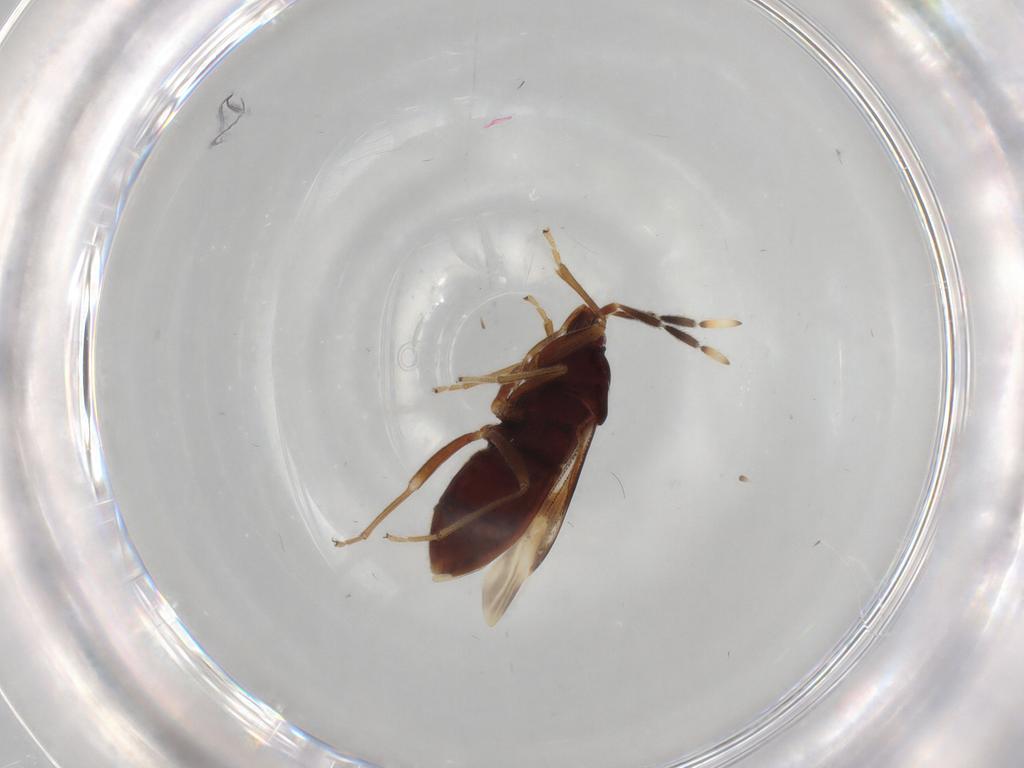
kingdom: Animalia
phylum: Arthropoda
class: Insecta
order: Hemiptera
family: Rhyparochromidae
